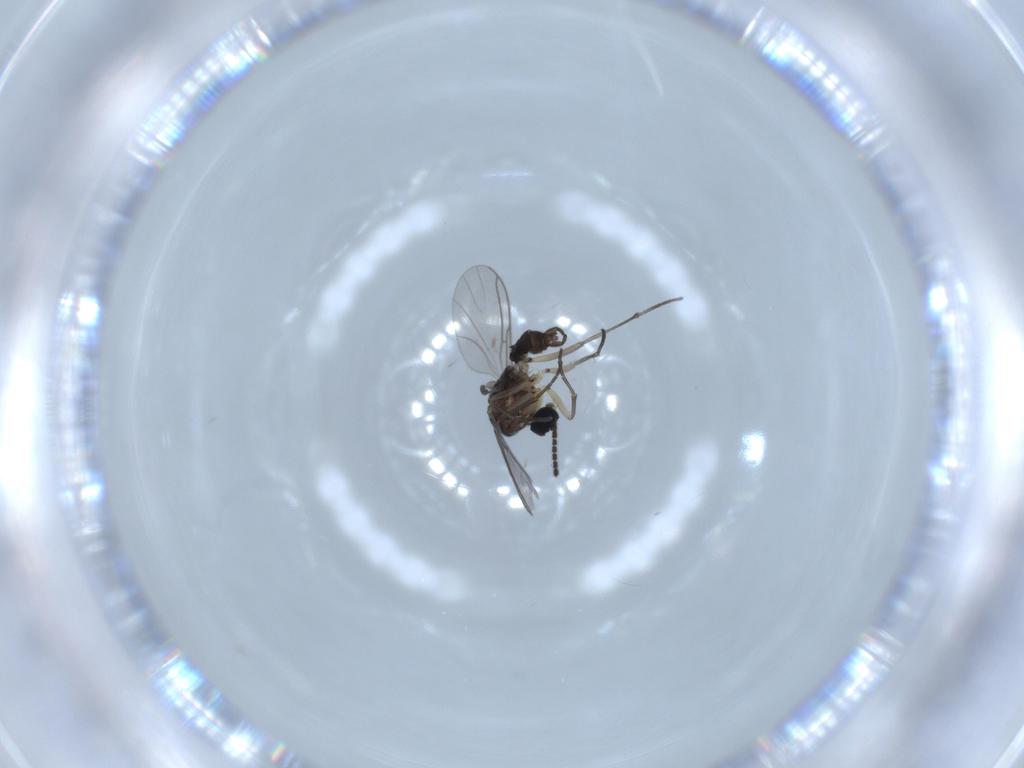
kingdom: Animalia
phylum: Arthropoda
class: Insecta
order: Diptera
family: Sciaridae
